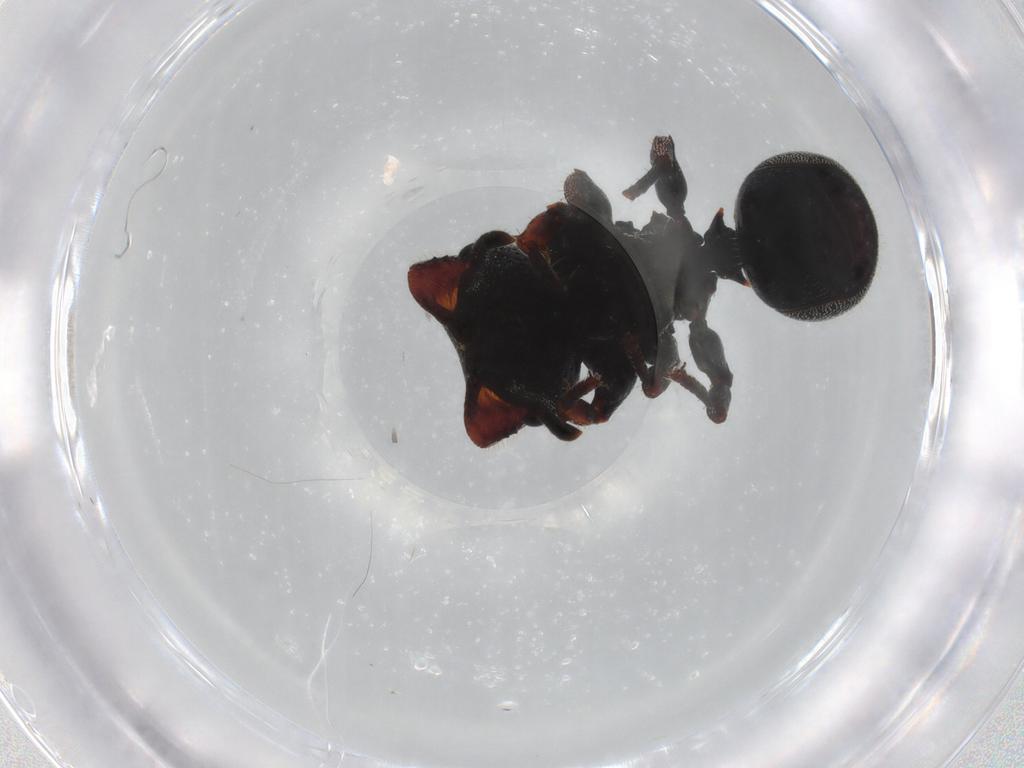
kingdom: Animalia
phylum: Arthropoda
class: Insecta
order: Hymenoptera
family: Formicidae
